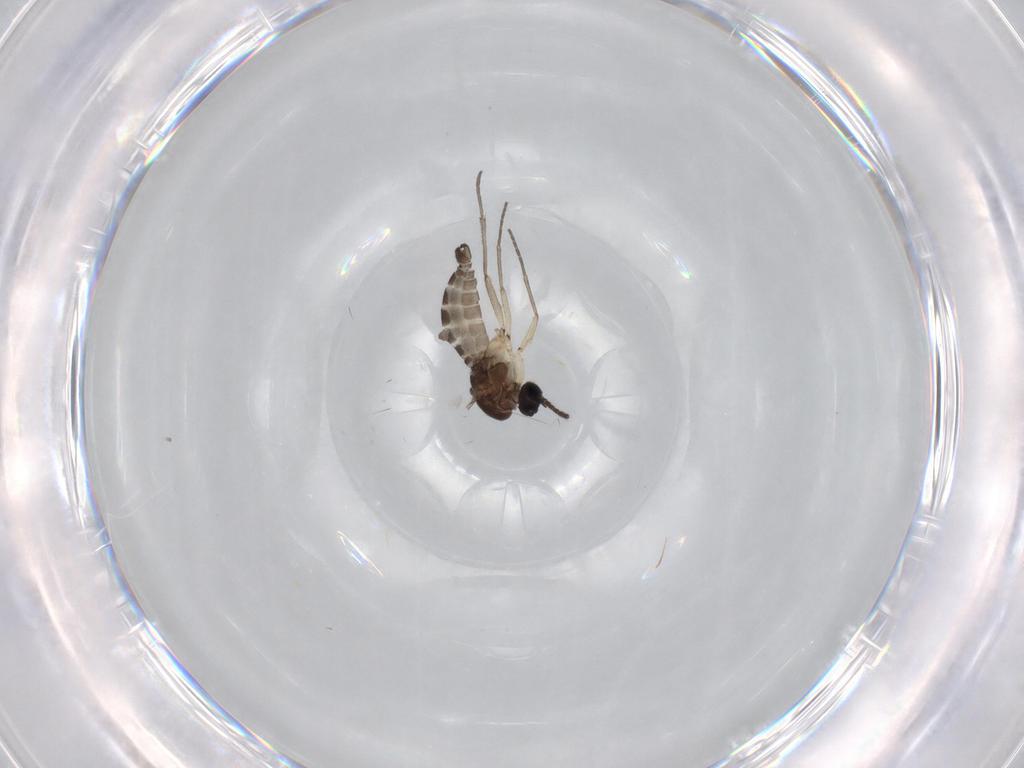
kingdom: Animalia
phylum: Arthropoda
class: Insecta
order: Diptera
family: Sciaridae
